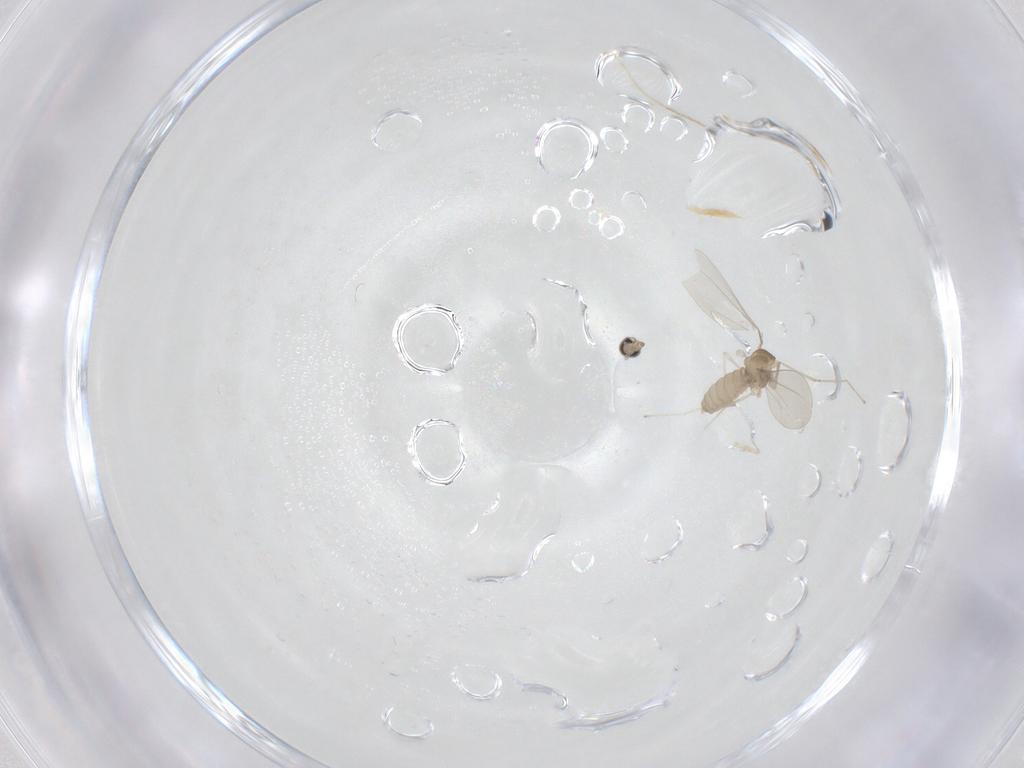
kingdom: Animalia
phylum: Arthropoda
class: Insecta
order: Diptera
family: Cecidomyiidae
